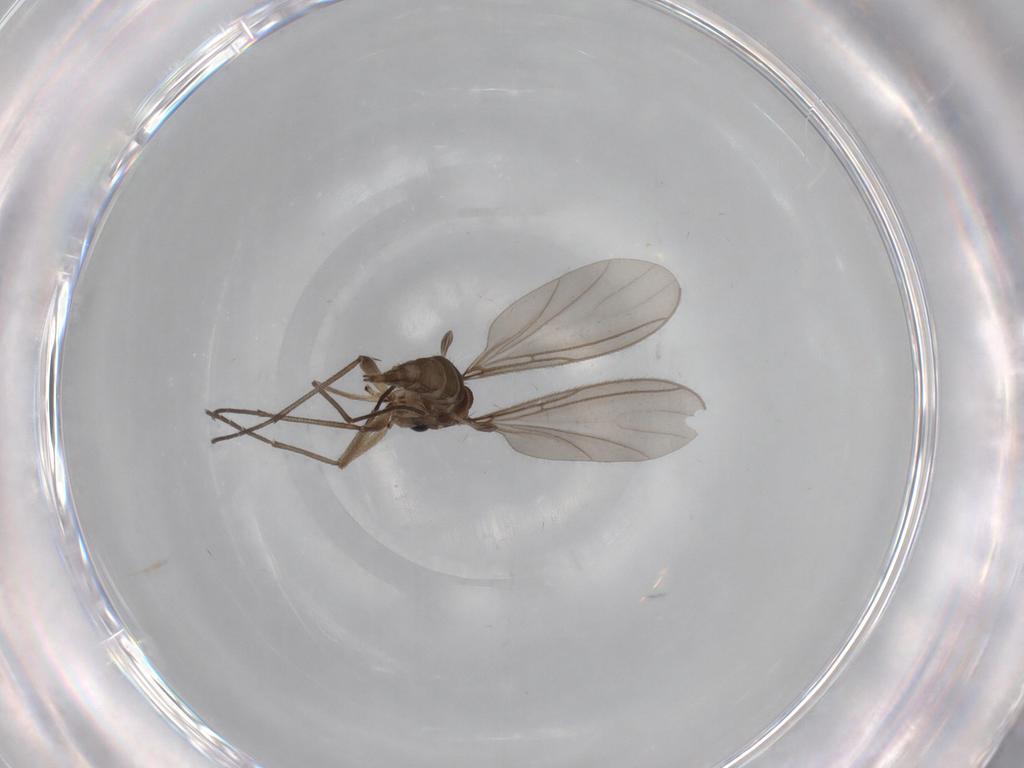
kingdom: Animalia
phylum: Arthropoda
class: Insecta
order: Diptera
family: Sciaridae
